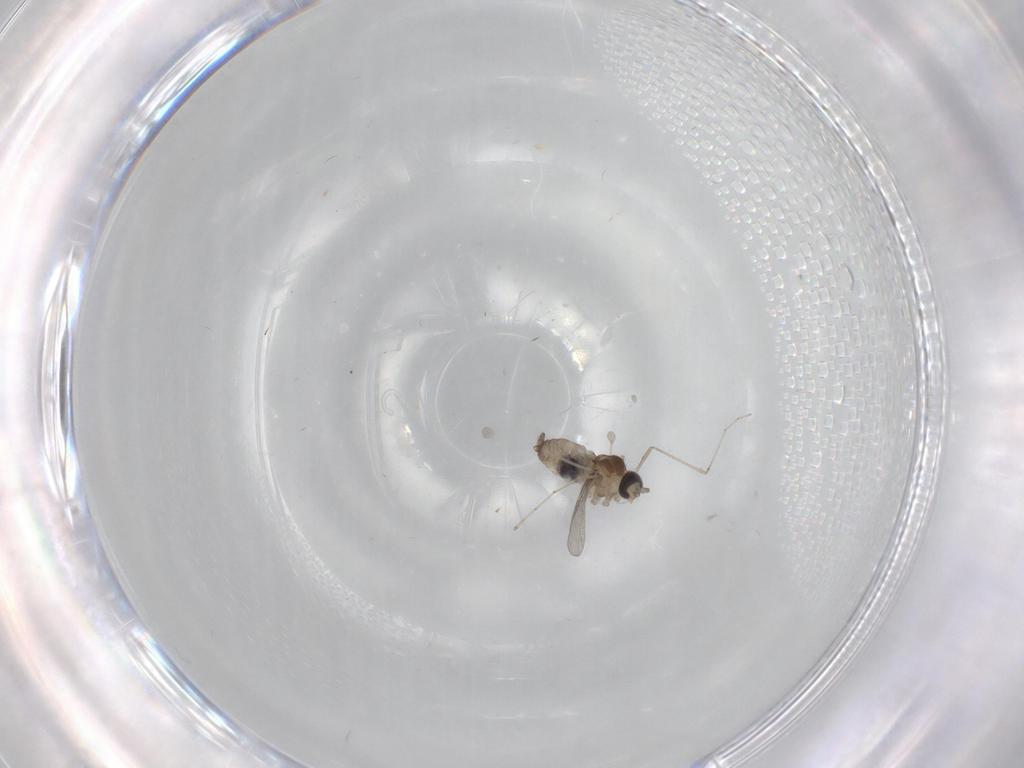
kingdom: Animalia
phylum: Arthropoda
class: Insecta
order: Diptera
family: Cecidomyiidae
